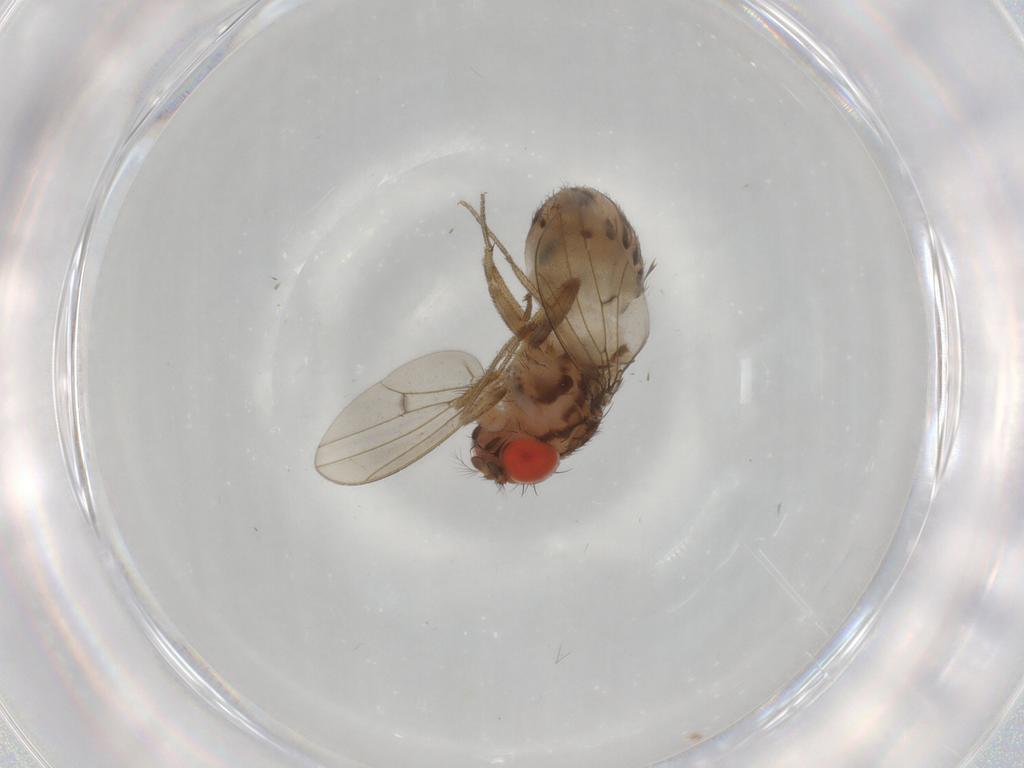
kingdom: Animalia
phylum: Arthropoda
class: Insecta
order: Diptera
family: Drosophilidae
